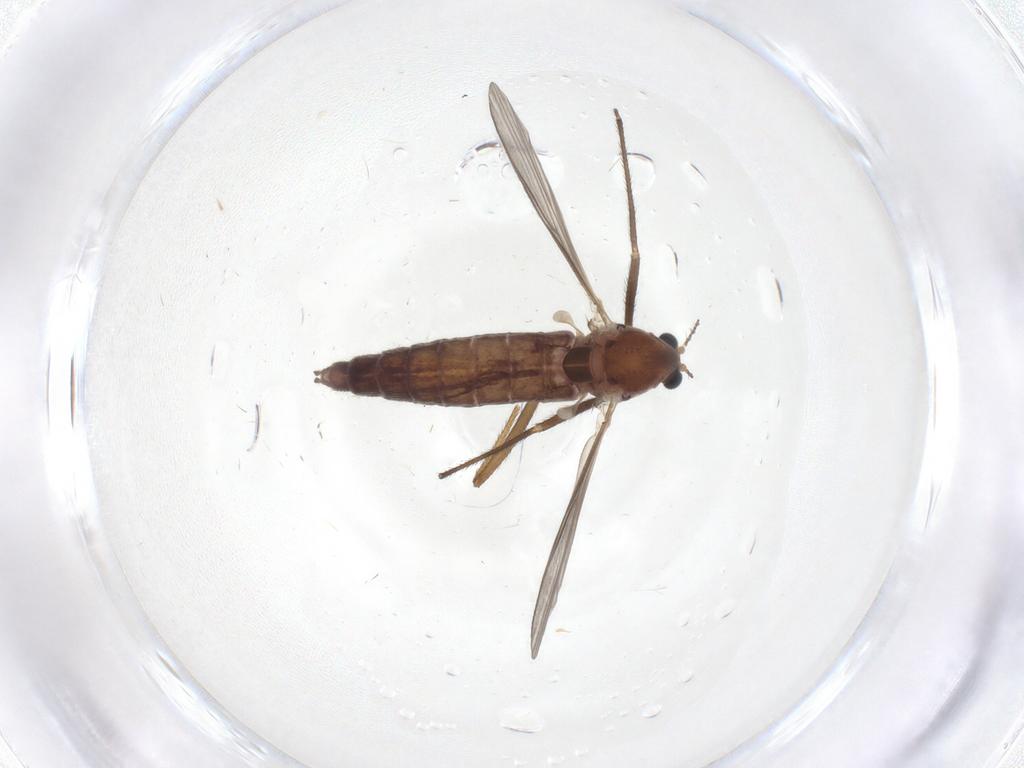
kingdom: Animalia
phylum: Arthropoda
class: Insecta
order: Diptera
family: Chironomidae
